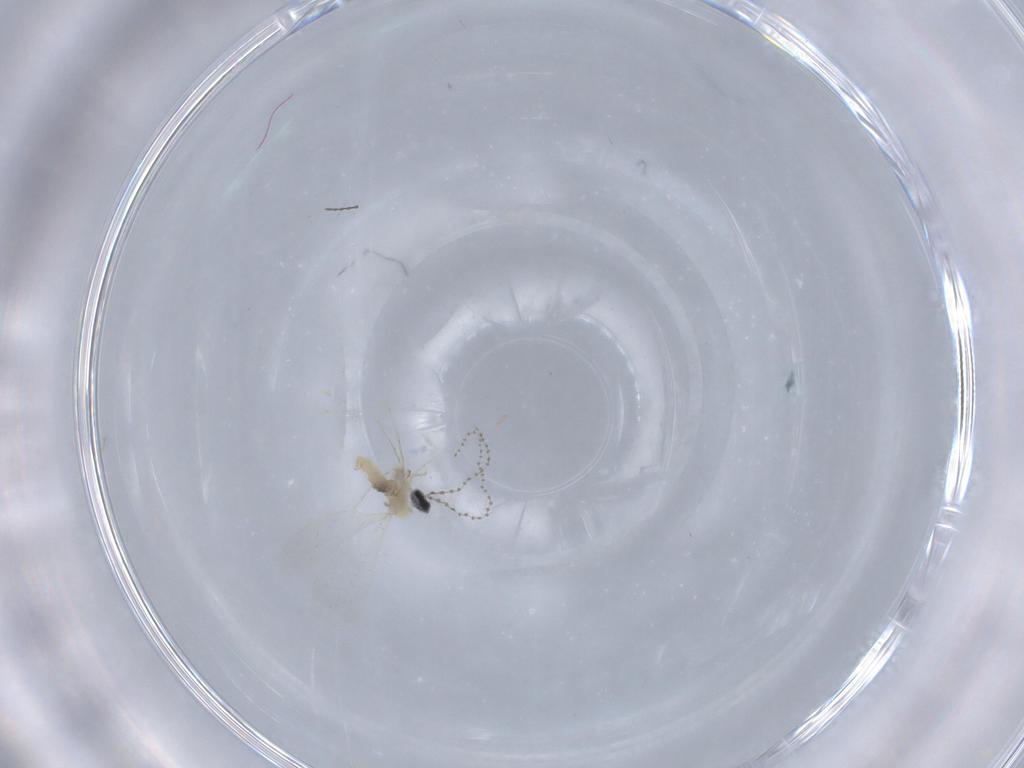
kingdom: Animalia
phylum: Arthropoda
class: Insecta
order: Diptera
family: Cecidomyiidae
